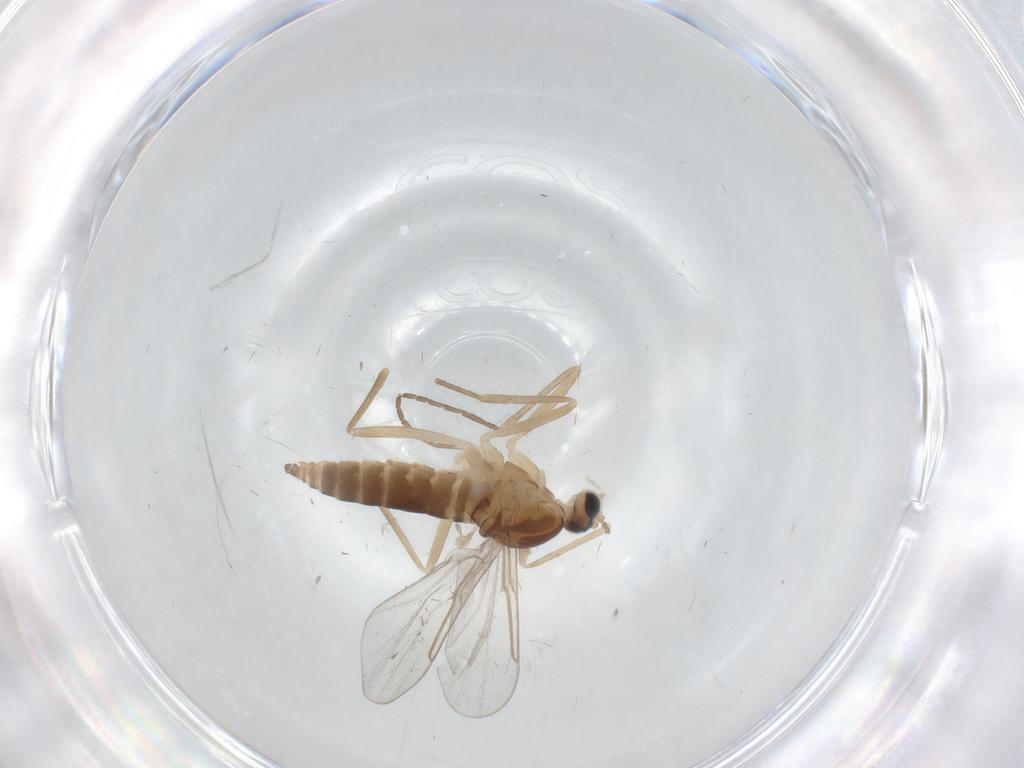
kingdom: Animalia
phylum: Arthropoda
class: Insecta
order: Diptera
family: Cecidomyiidae
